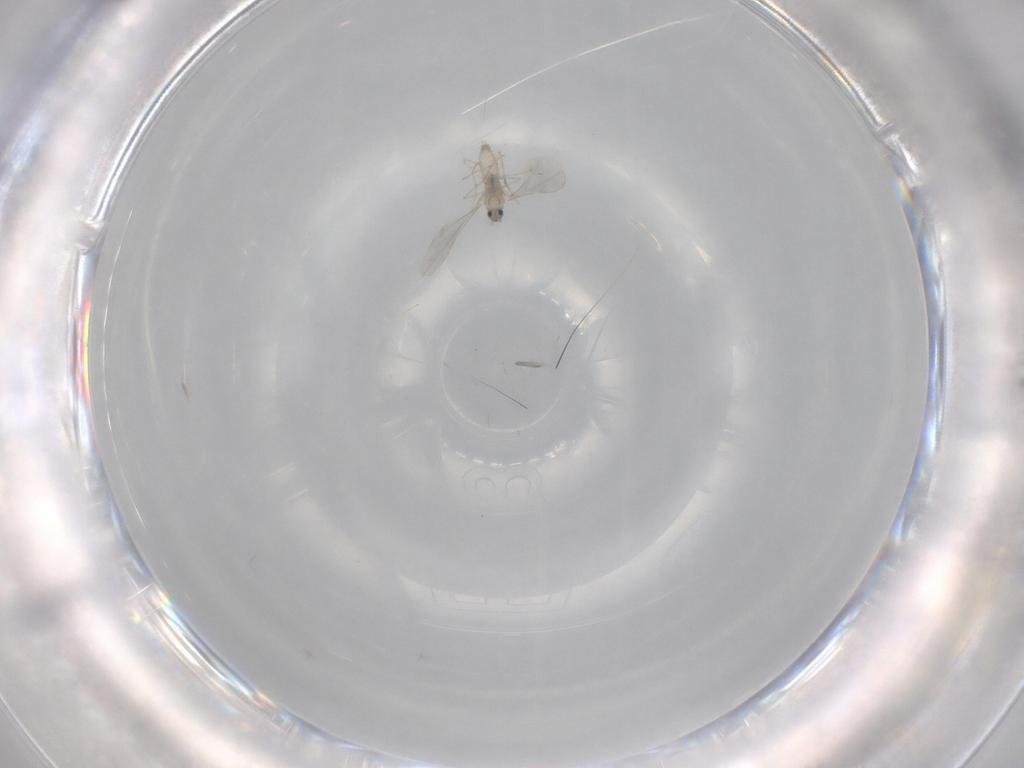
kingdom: Animalia
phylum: Arthropoda
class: Insecta
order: Diptera
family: Cecidomyiidae
